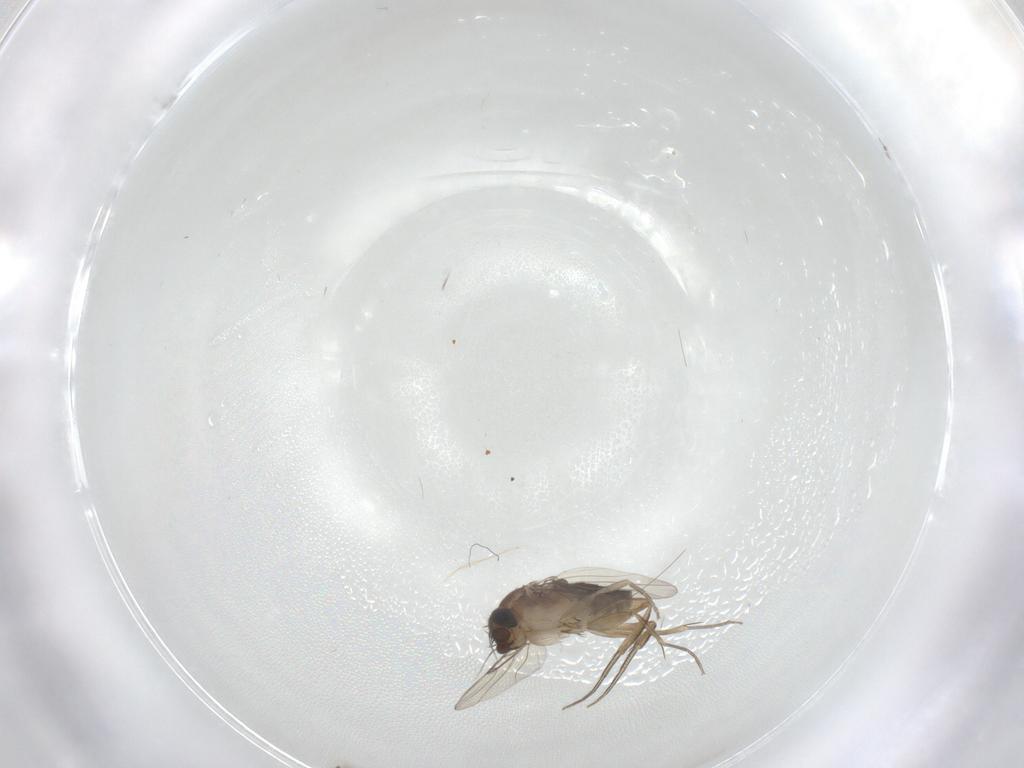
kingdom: Animalia
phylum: Arthropoda
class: Insecta
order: Diptera
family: Phoridae
